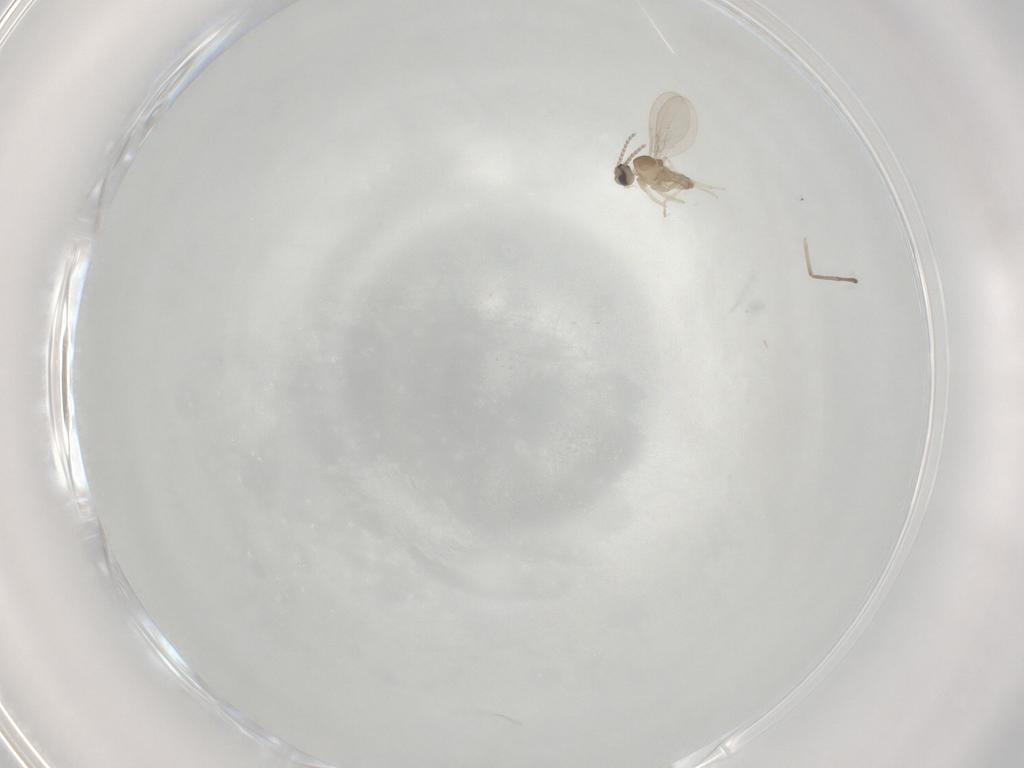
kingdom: Animalia
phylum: Arthropoda
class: Insecta
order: Diptera
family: Psychodidae
